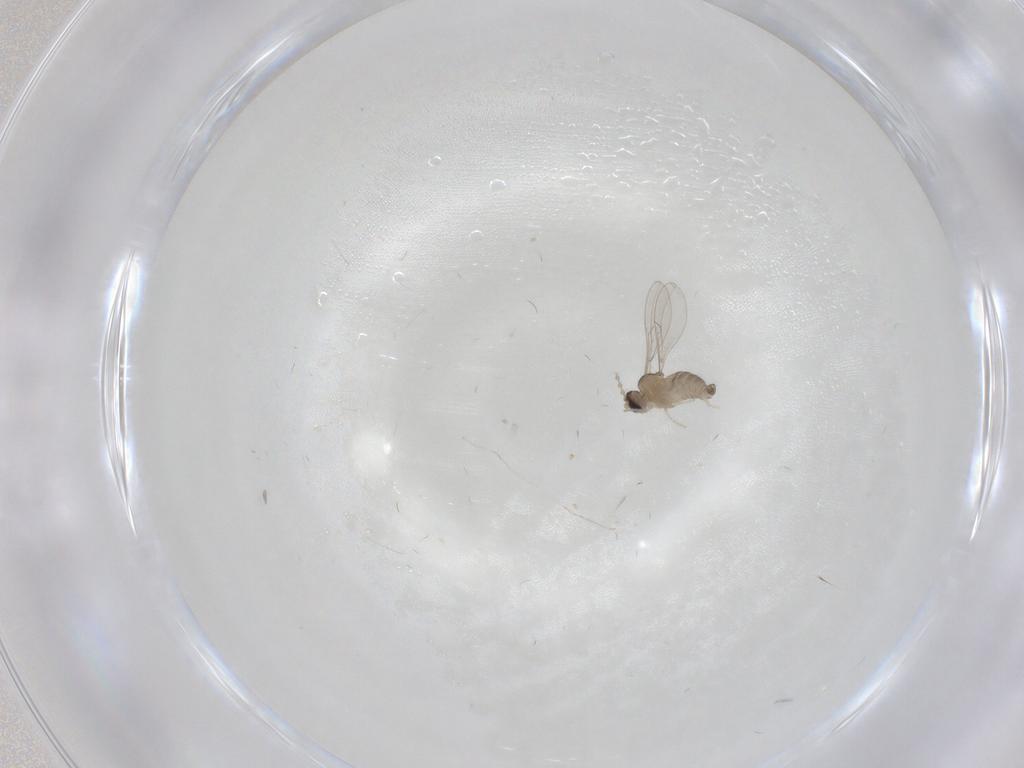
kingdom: Animalia
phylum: Arthropoda
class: Insecta
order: Diptera
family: Cecidomyiidae
